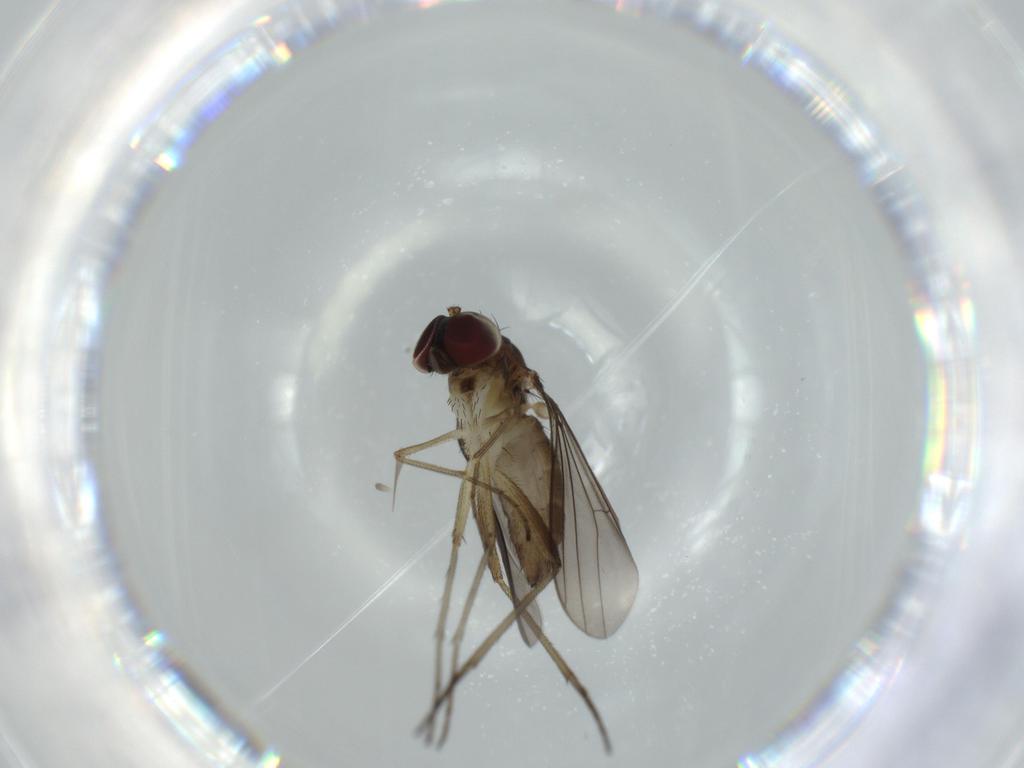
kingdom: Animalia
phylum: Arthropoda
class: Insecta
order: Diptera
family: Dolichopodidae
